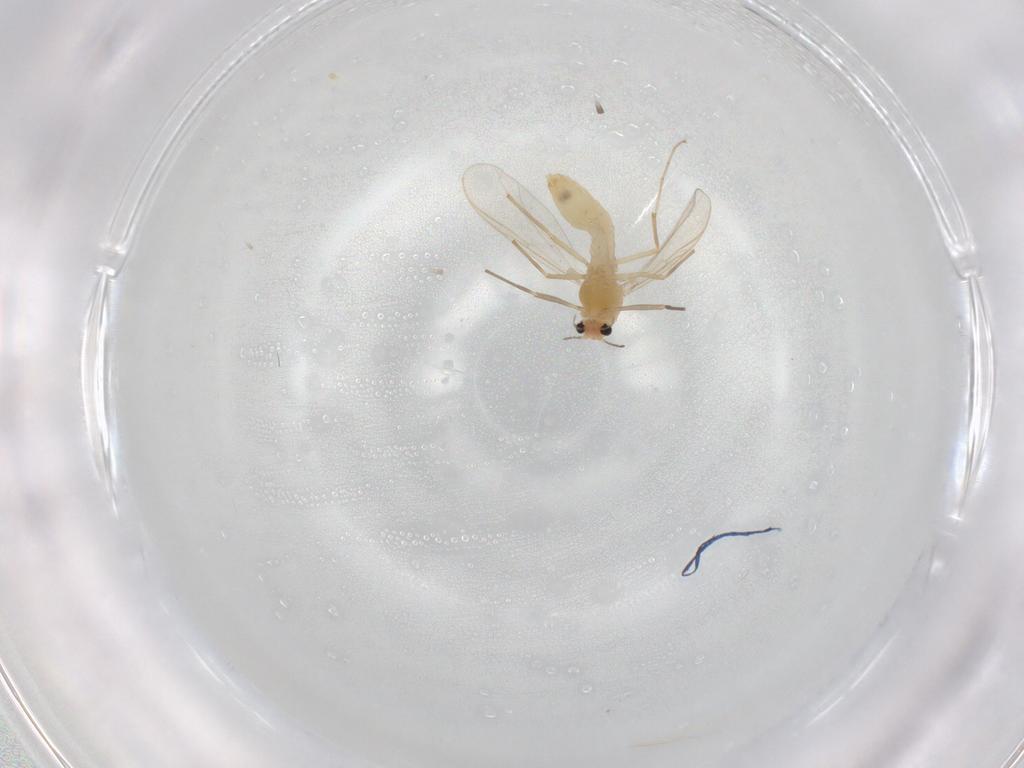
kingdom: Animalia
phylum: Arthropoda
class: Insecta
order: Diptera
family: Chironomidae
